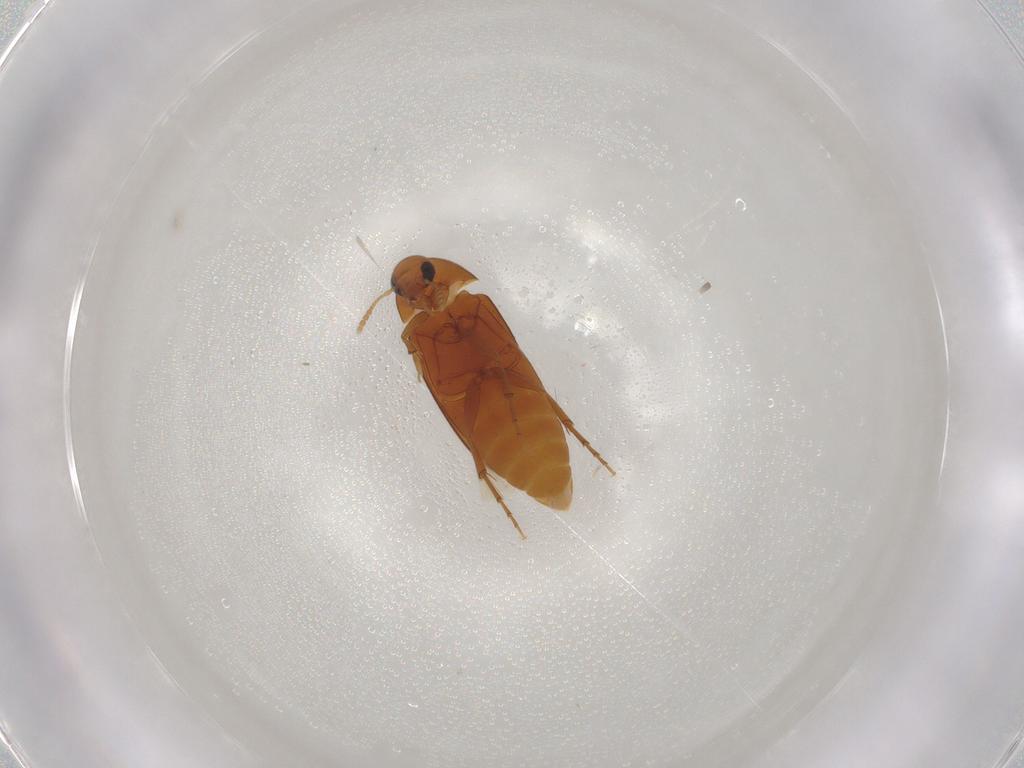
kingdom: Animalia
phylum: Arthropoda
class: Insecta
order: Coleoptera
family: Scraptiidae
